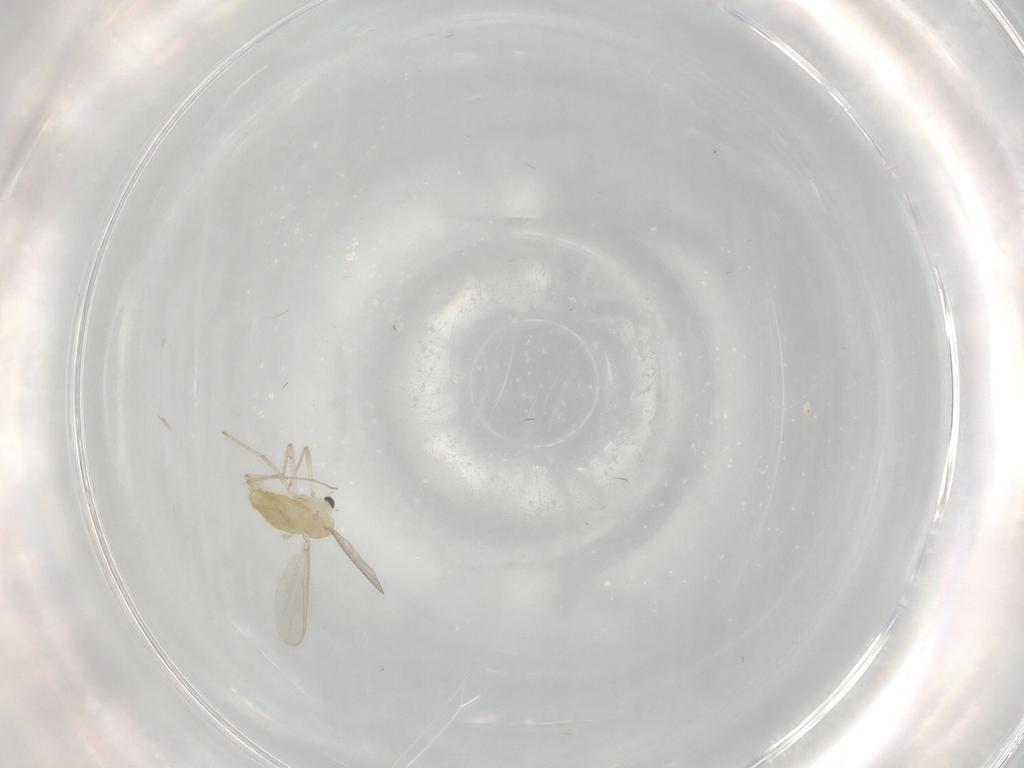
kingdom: Animalia
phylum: Arthropoda
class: Insecta
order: Diptera
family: Chironomidae
